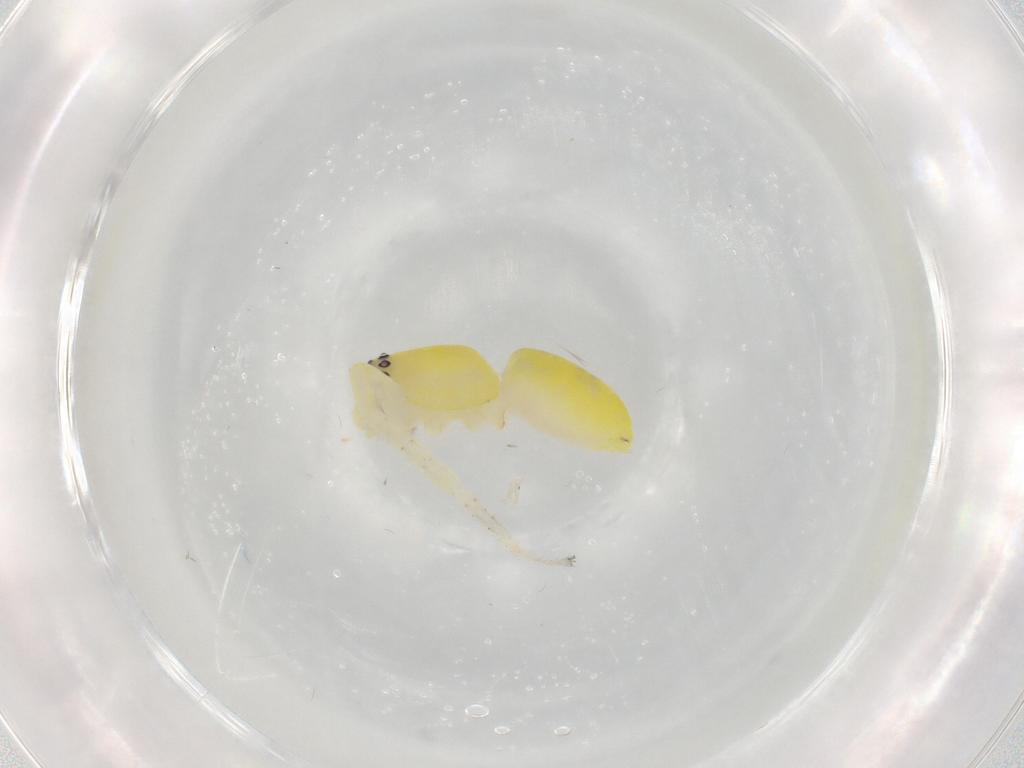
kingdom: Animalia
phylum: Arthropoda
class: Arachnida
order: Araneae
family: Anyphaenidae
